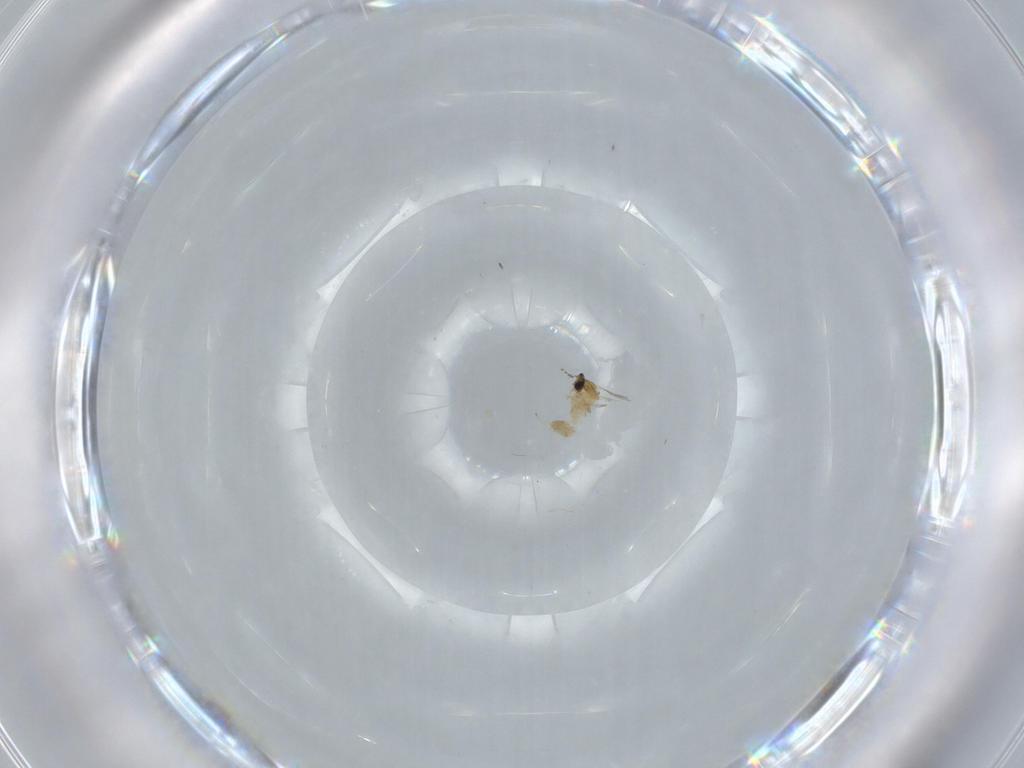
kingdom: Animalia
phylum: Arthropoda
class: Insecta
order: Diptera
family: Cecidomyiidae
